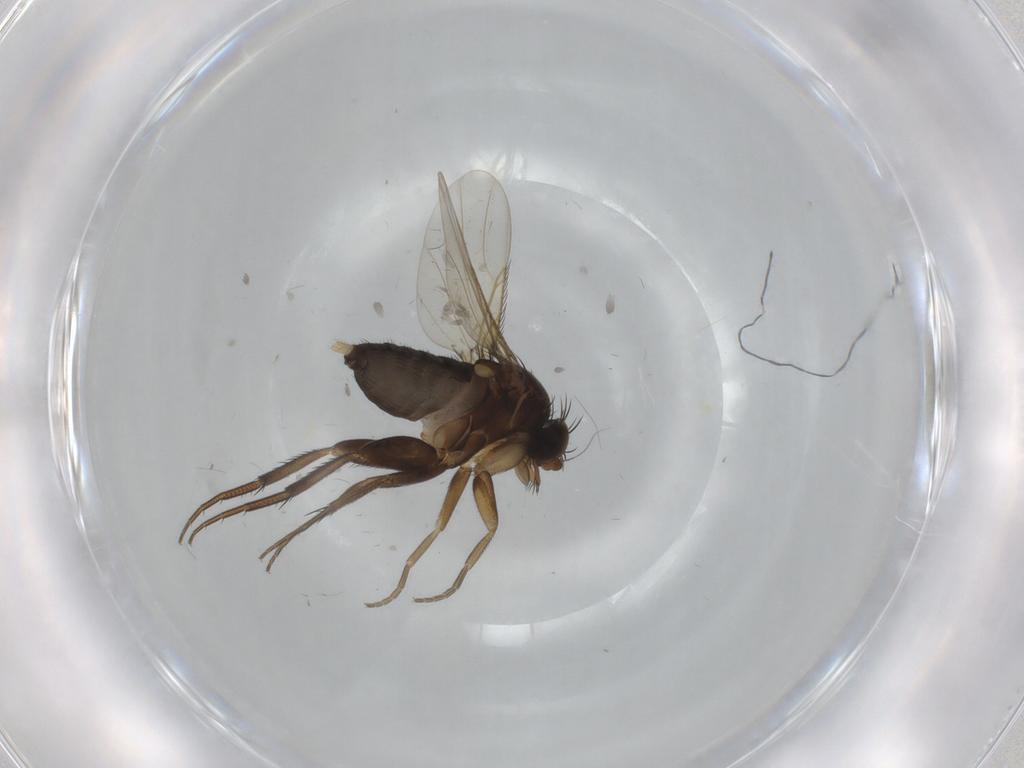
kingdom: Animalia
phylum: Arthropoda
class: Insecta
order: Diptera
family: Phoridae
